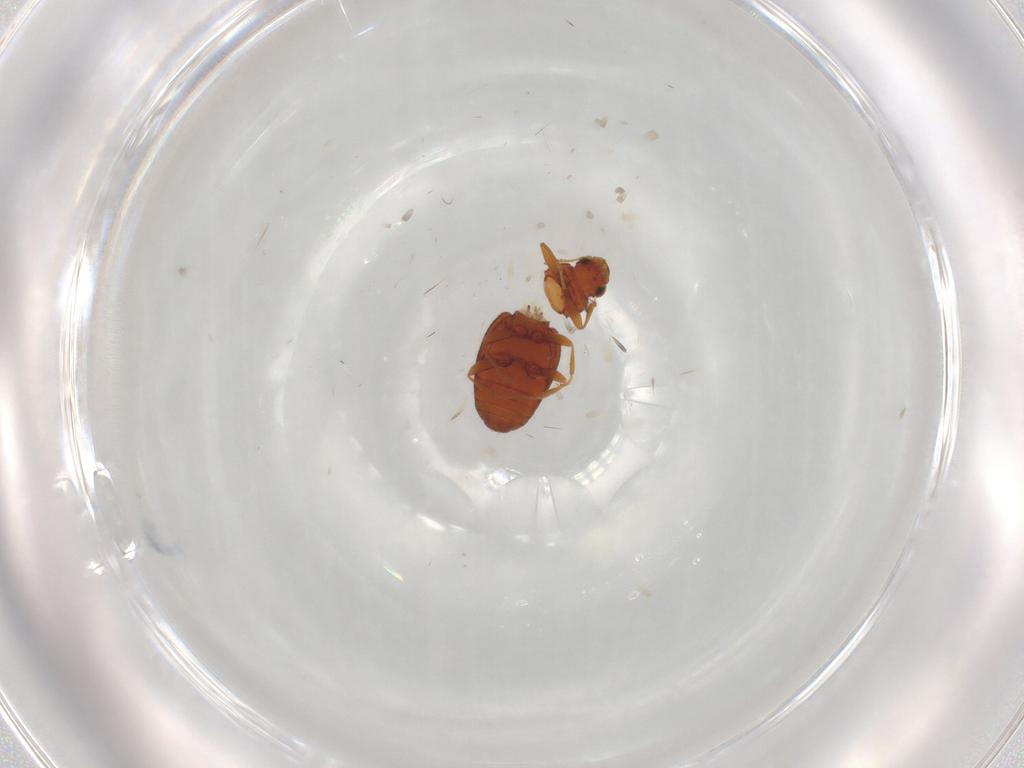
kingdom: Animalia
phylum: Arthropoda
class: Insecta
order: Coleoptera
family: Latridiidae
